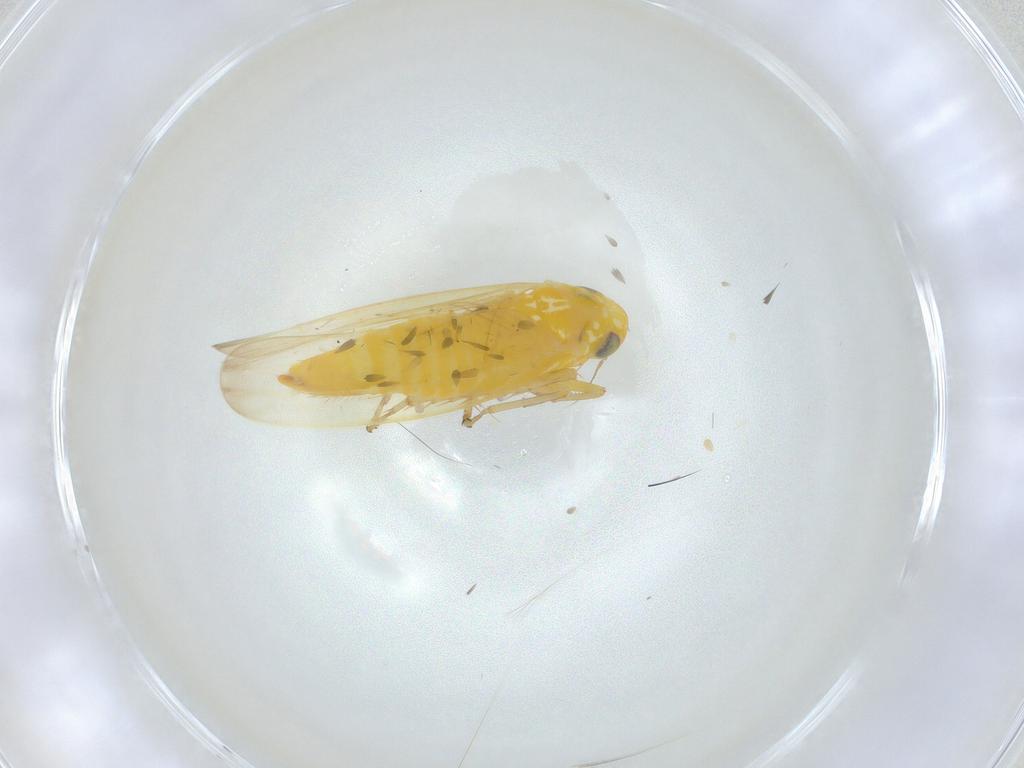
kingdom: Animalia
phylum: Arthropoda
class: Insecta
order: Hemiptera
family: Cicadellidae
